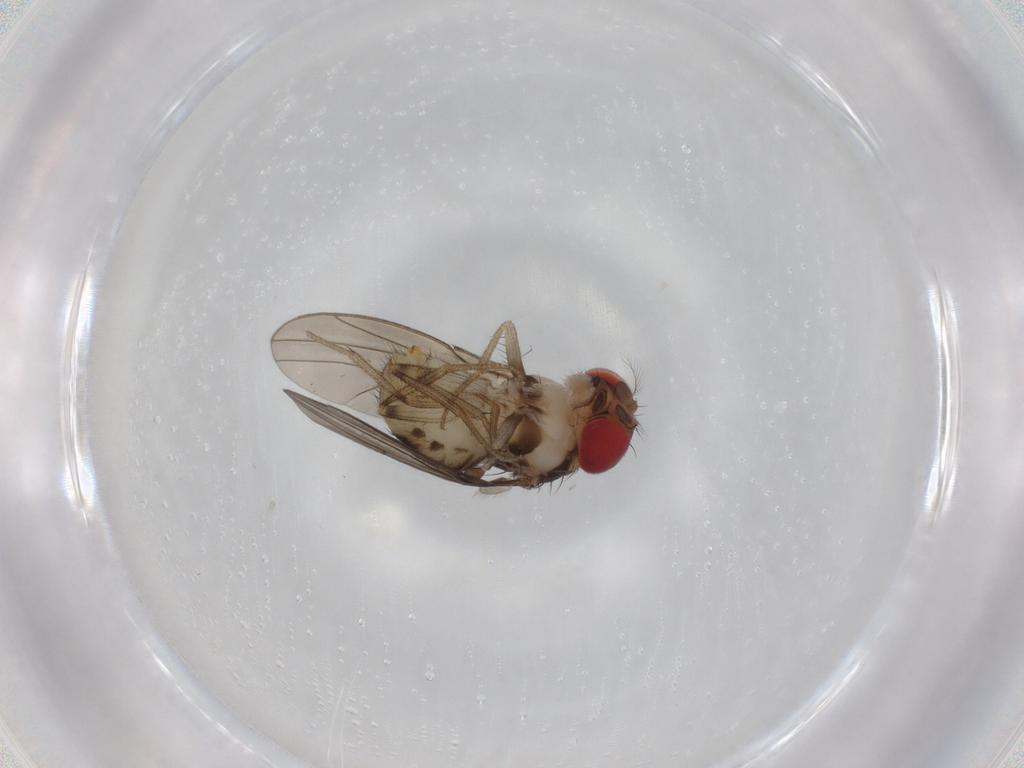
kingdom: Animalia
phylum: Arthropoda
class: Insecta
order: Diptera
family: Drosophilidae
